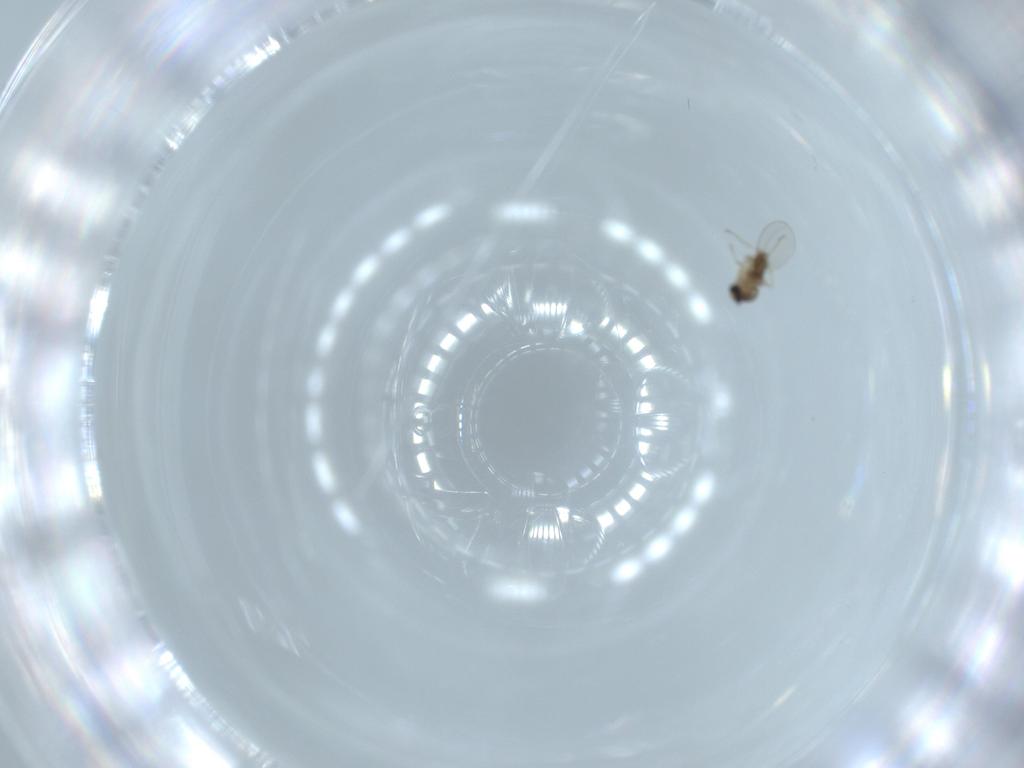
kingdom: Animalia
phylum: Arthropoda
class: Insecta
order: Diptera
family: Cecidomyiidae
